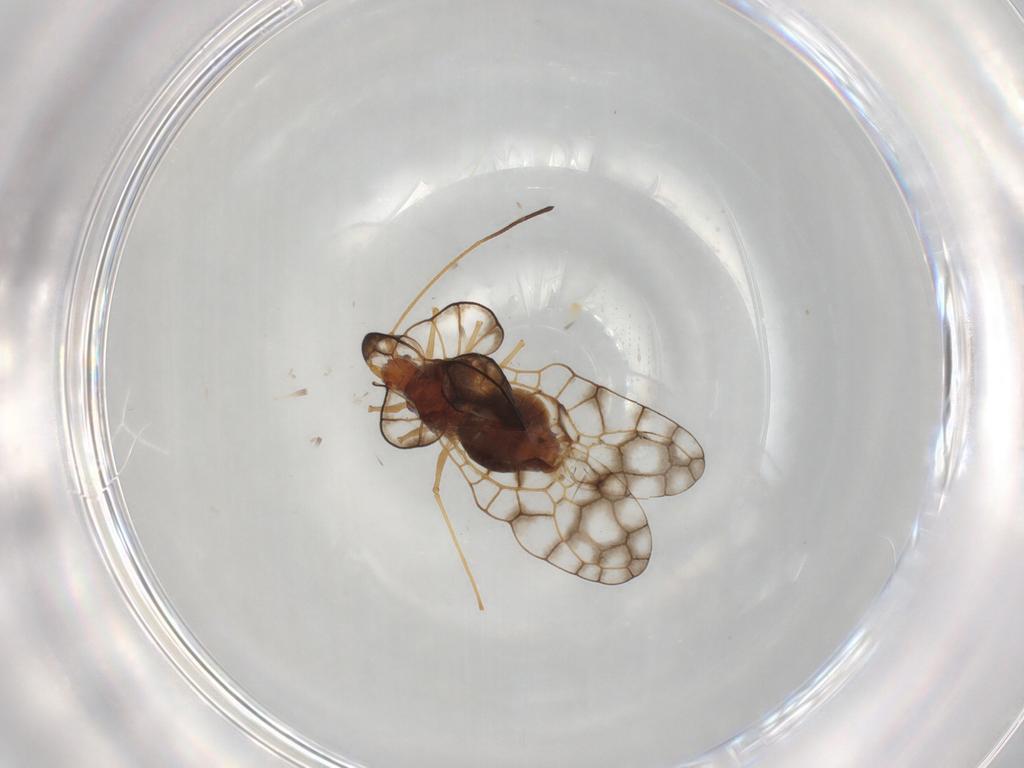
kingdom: Animalia
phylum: Arthropoda
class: Insecta
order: Hemiptera
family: Tingidae
